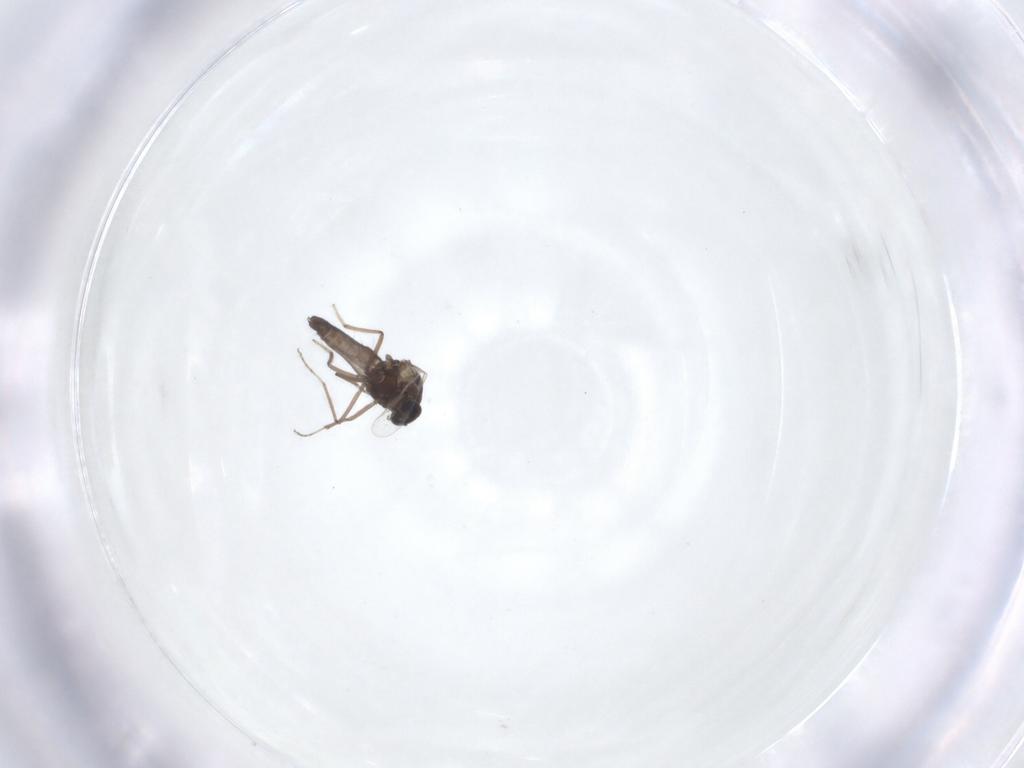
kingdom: Animalia
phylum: Arthropoda
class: Insecta
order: Diptera
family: Ceratopogonidae
